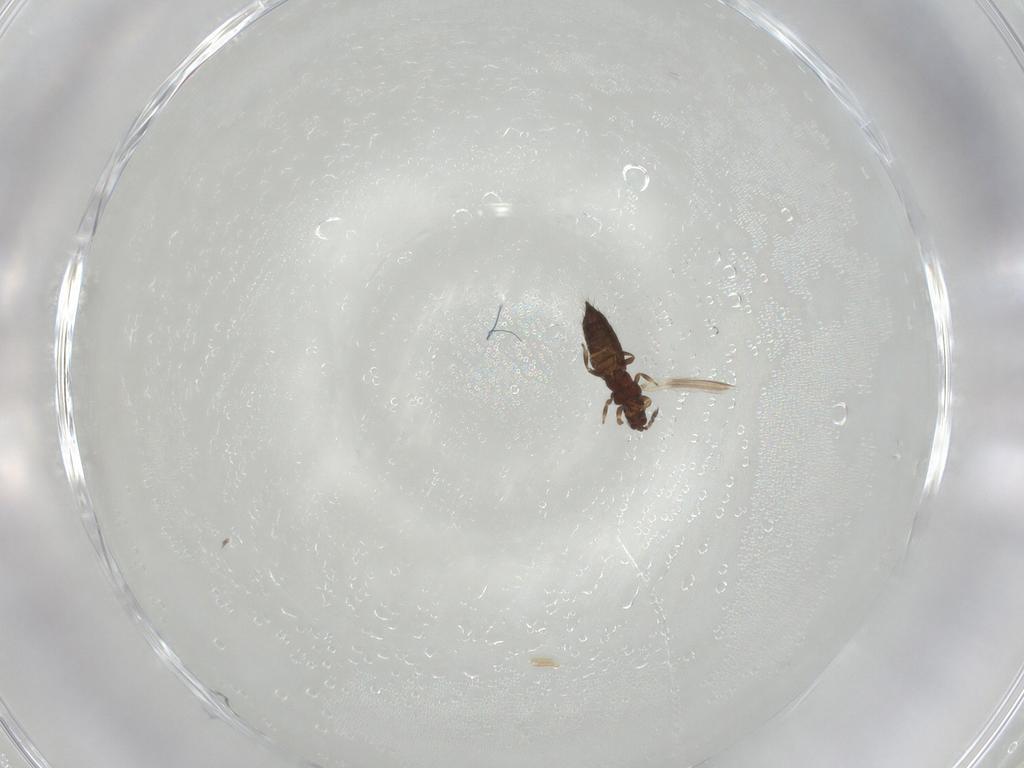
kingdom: Animalia
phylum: Arthropoda
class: Insecta
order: Thysanoptera
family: Thripidae
